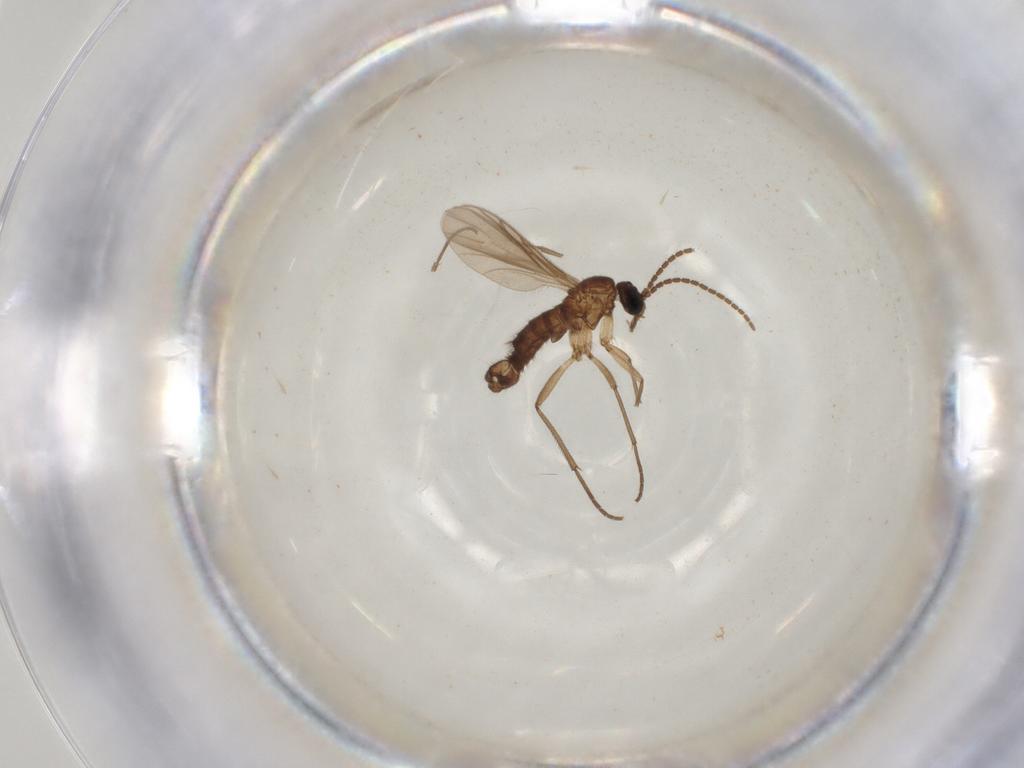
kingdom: Animalia
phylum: Arthropoda
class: Insecta
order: Diptera
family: Sciaridae
